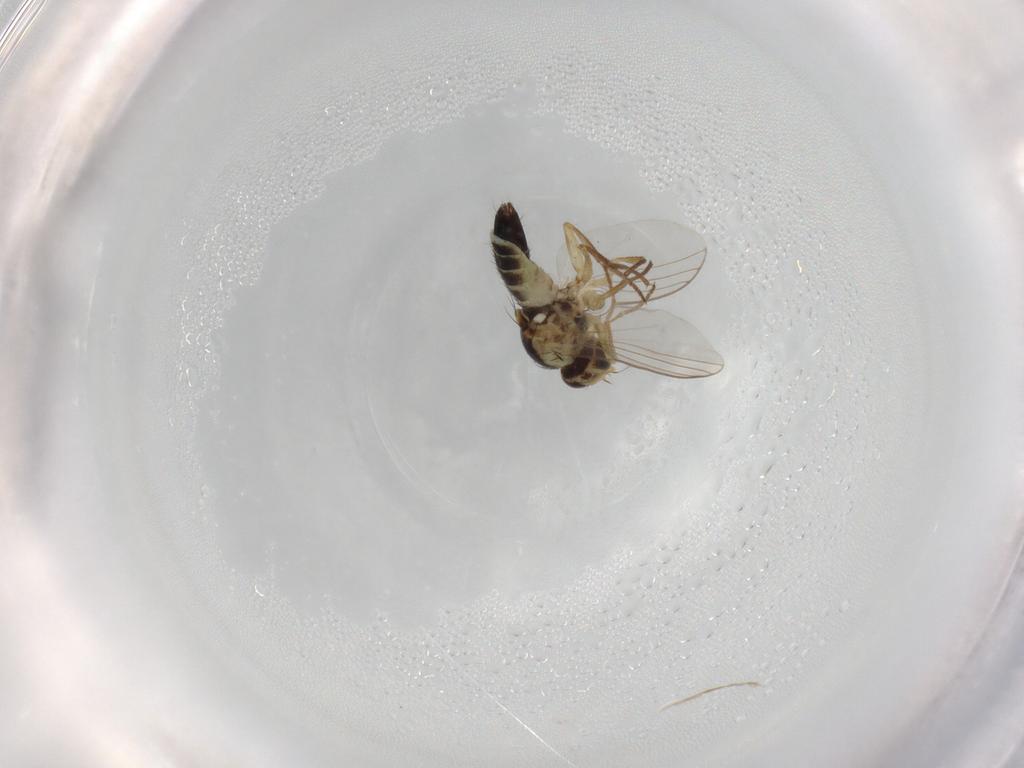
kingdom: Animalia
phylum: Arthropoda
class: Insecta
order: Diptera
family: Agromyzidae
